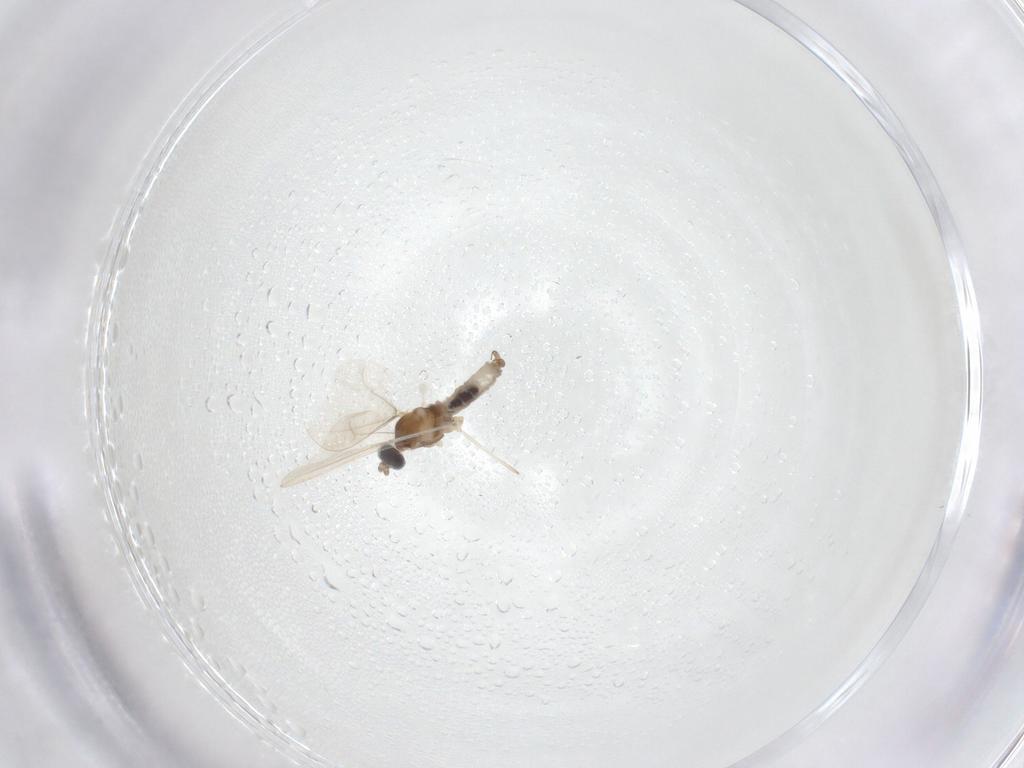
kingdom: Animalia
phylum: Arthropoda
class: Insecta
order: Diptera
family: Cecidomyiidae
